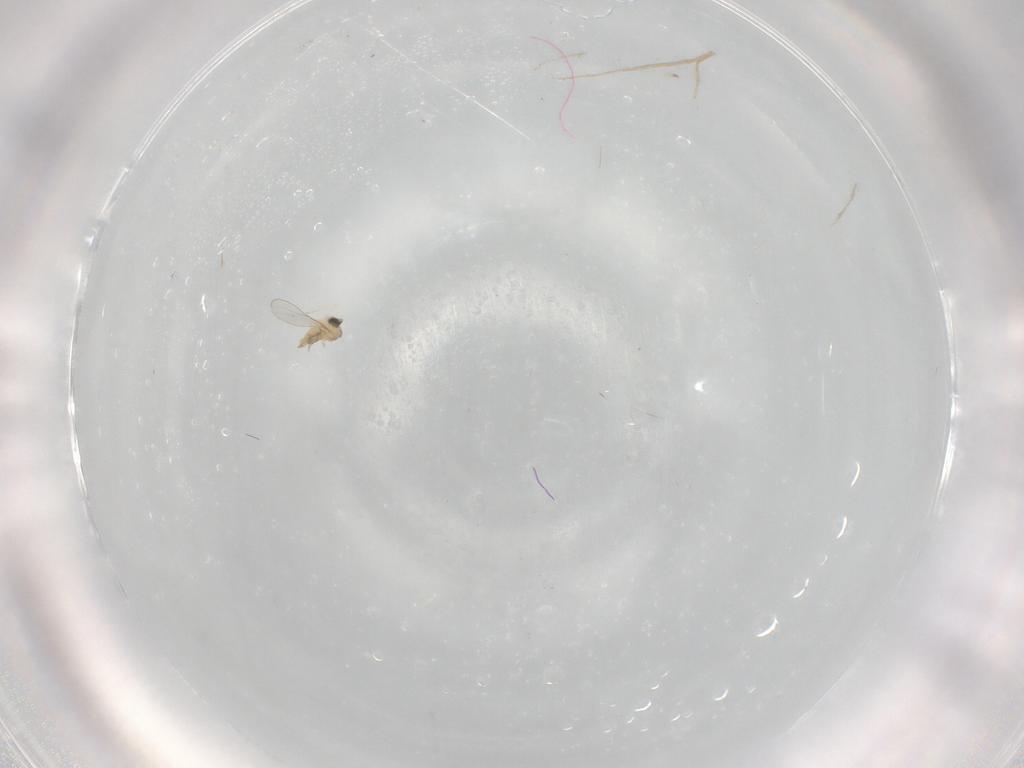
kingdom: Animalia
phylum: Arthropoda
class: Insecta
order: Diptera
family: Cecidomyiidae
